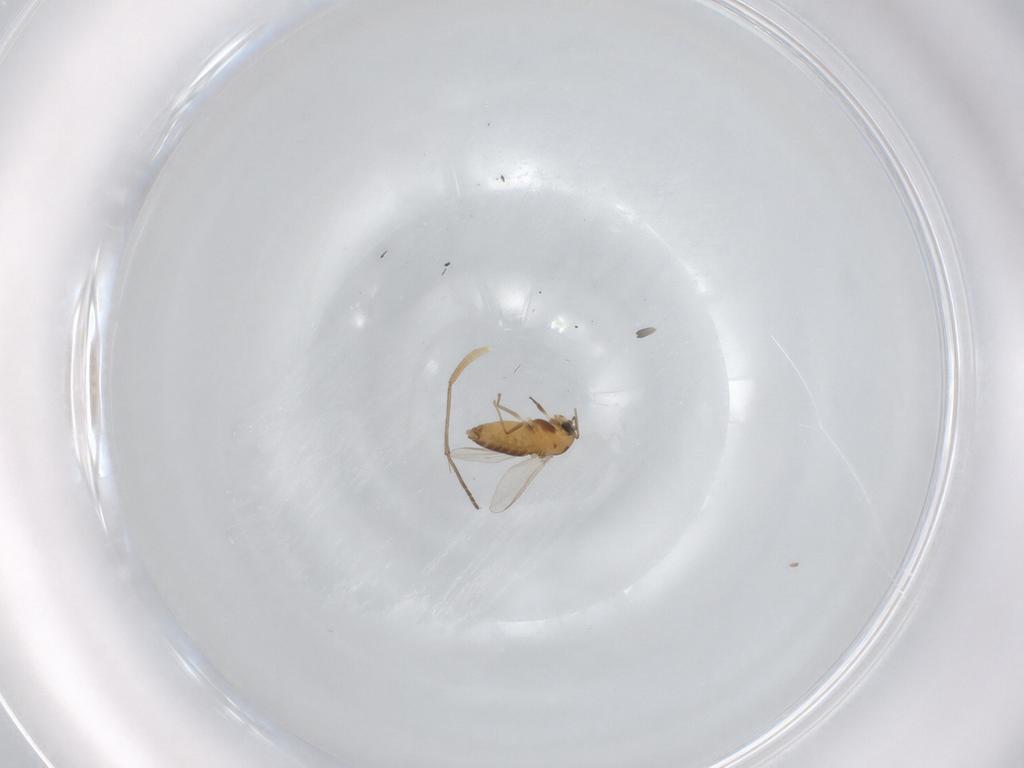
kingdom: Animalia
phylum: Arthropoda
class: Insecta
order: Diptera
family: Chironomidae
